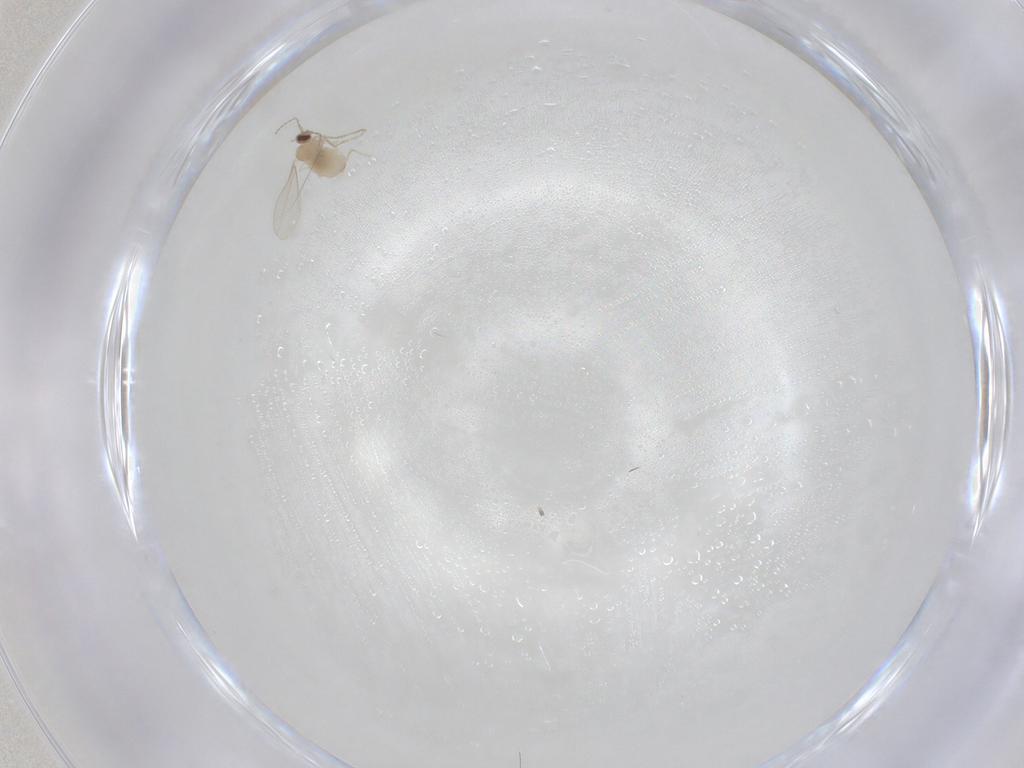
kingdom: Animalia
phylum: Arthropoda
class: Insecta
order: Diptera
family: Cecidomyiidae
